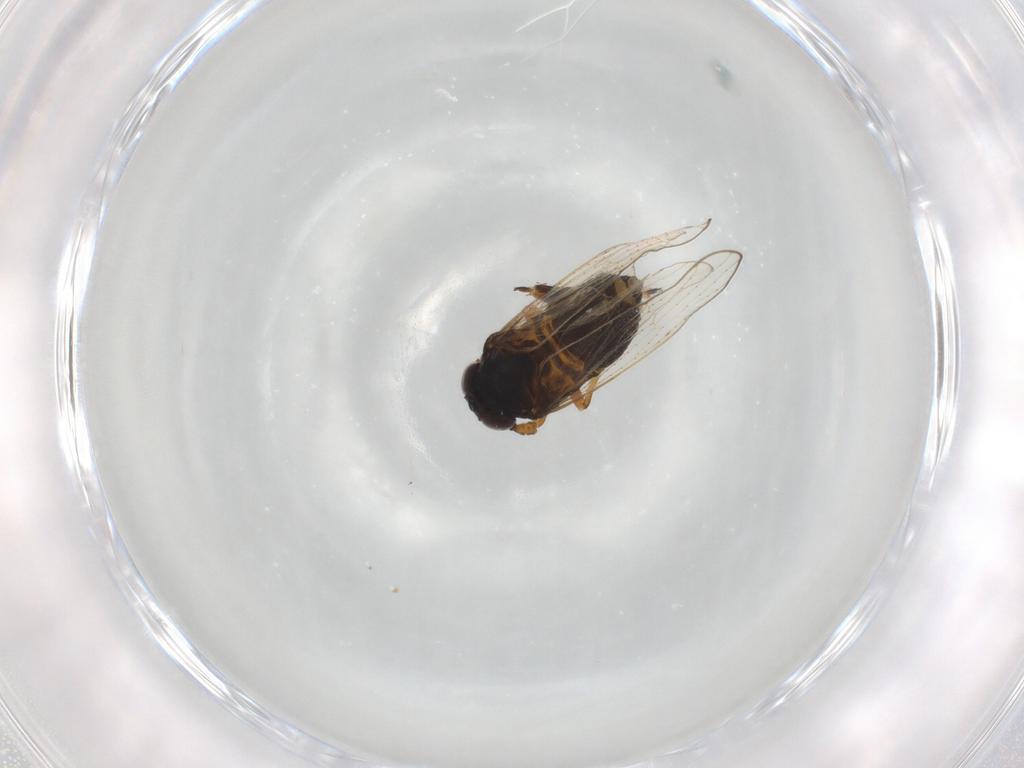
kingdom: Animalia
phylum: Arthropoda
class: Insecta
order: Hemiptera
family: Delphacidae
